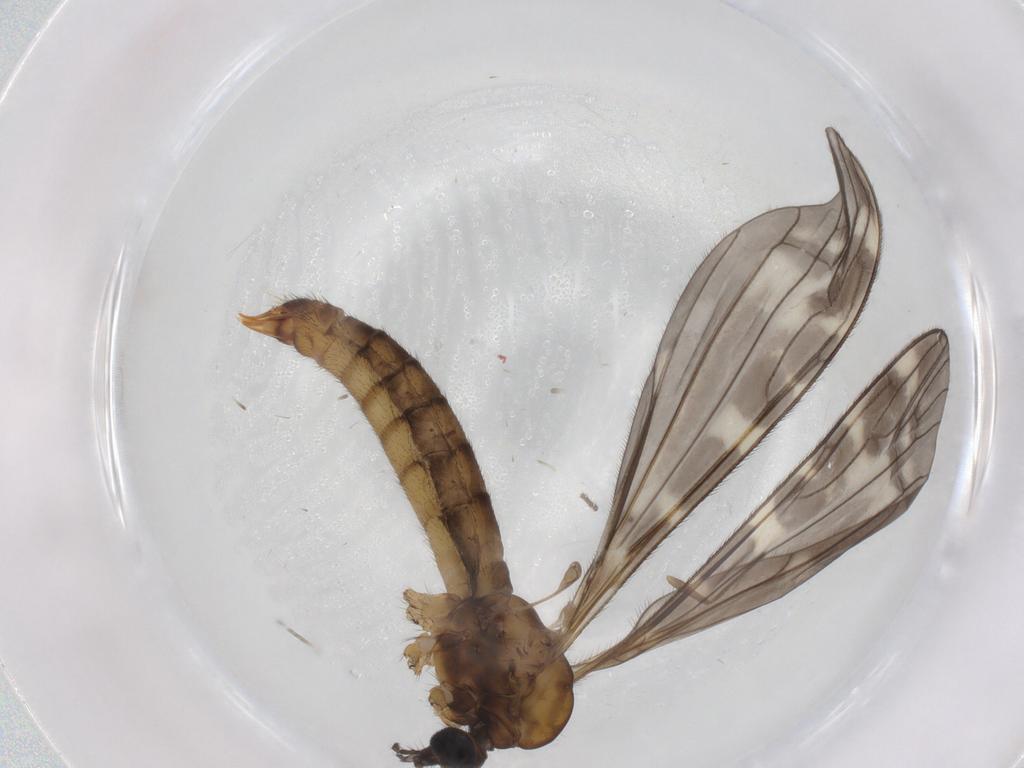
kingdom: Animalia
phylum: Arthropoda
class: Insecta
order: Diptera
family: Limoniidae
